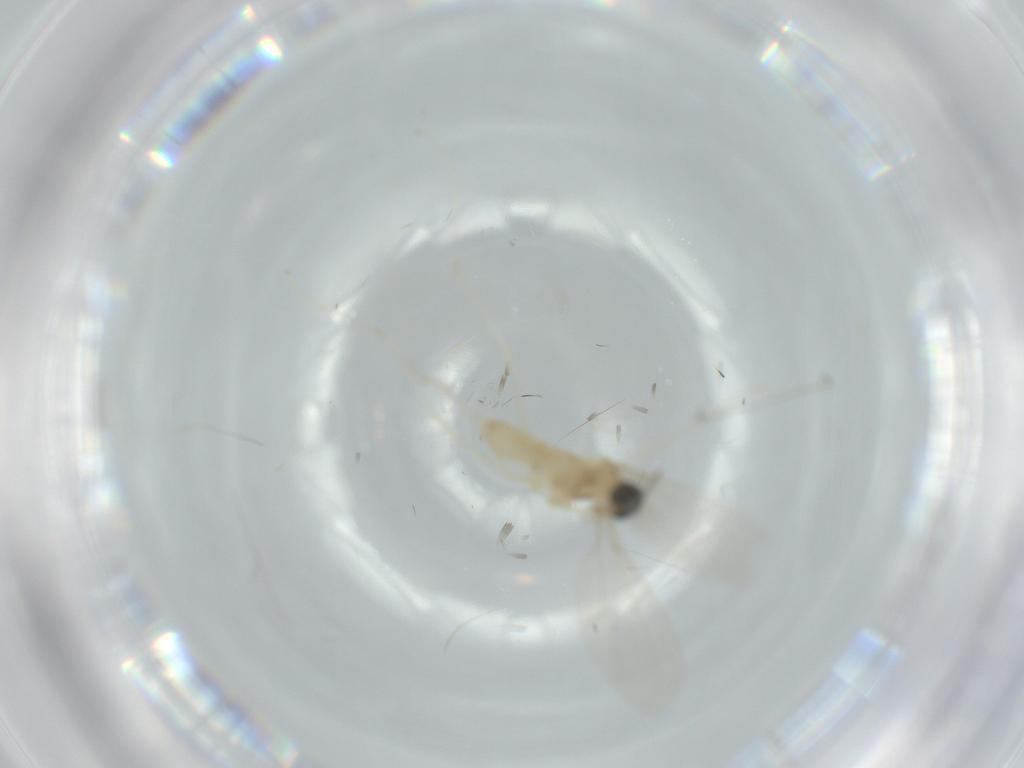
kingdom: Animalia
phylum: Arthropoda
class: Insecta
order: Diptera
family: Cecidomyiidae
